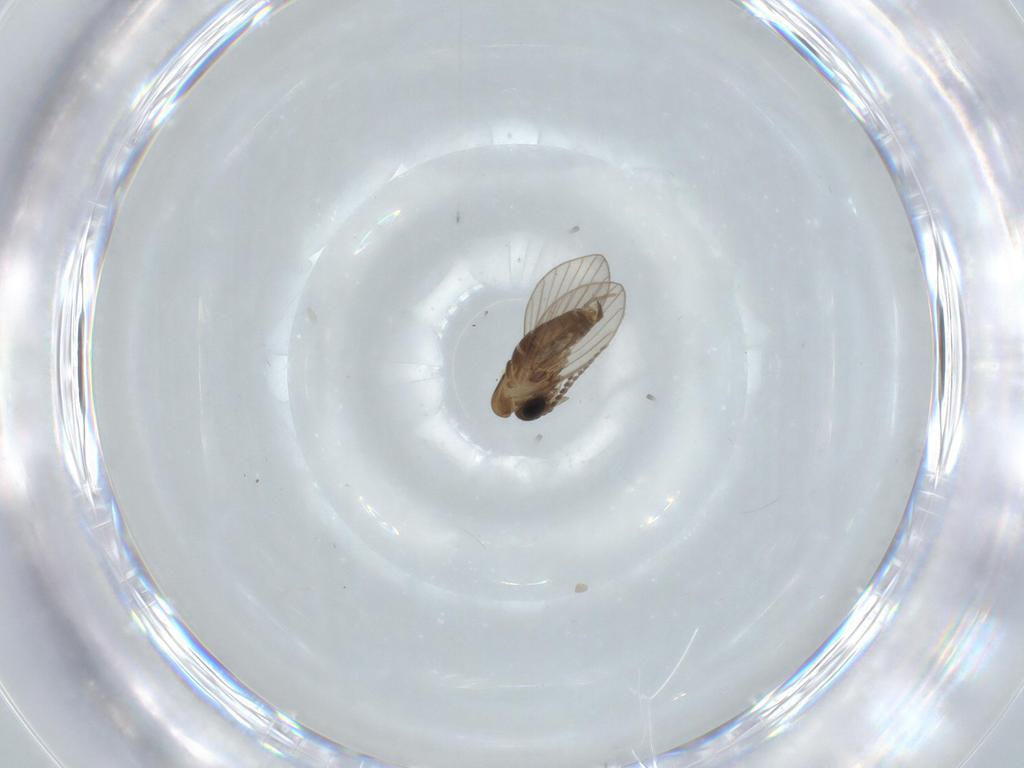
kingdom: Animalia
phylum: Arthropoda
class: Insecta
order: Diptera
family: Psychodidae
